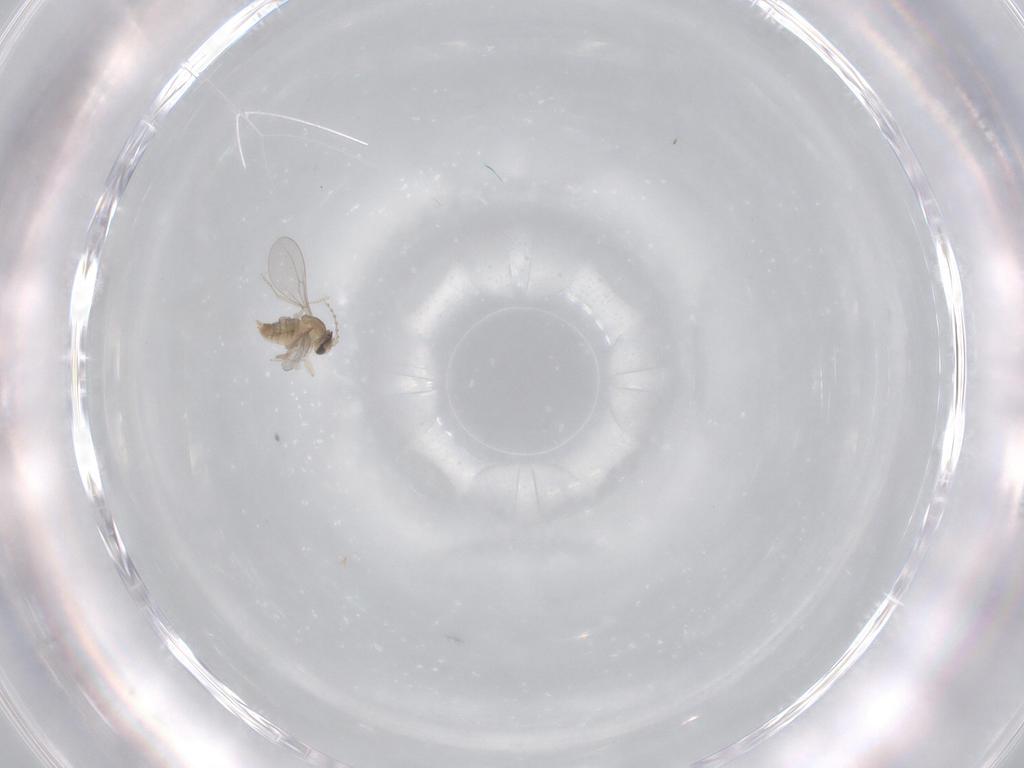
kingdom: Animalia
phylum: Arthropoda
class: Insecta
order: Diptera
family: Cecidomyiidae
